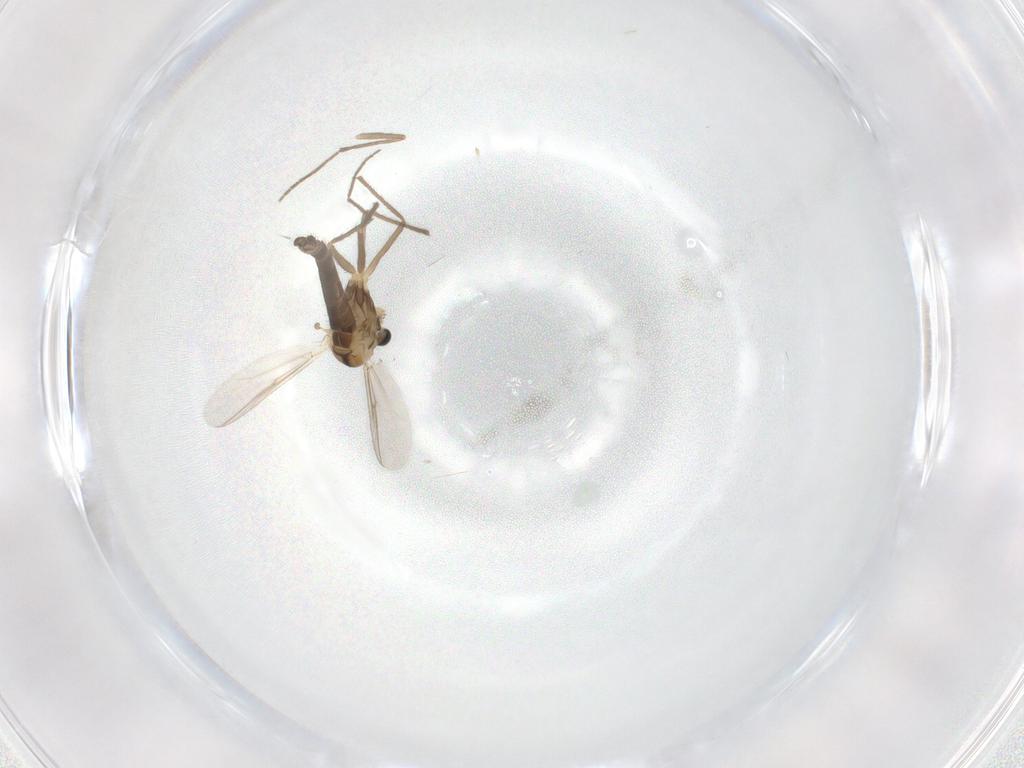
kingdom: Animalia
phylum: Arthropoda
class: Insecta
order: Diptera
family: Chironomidae
